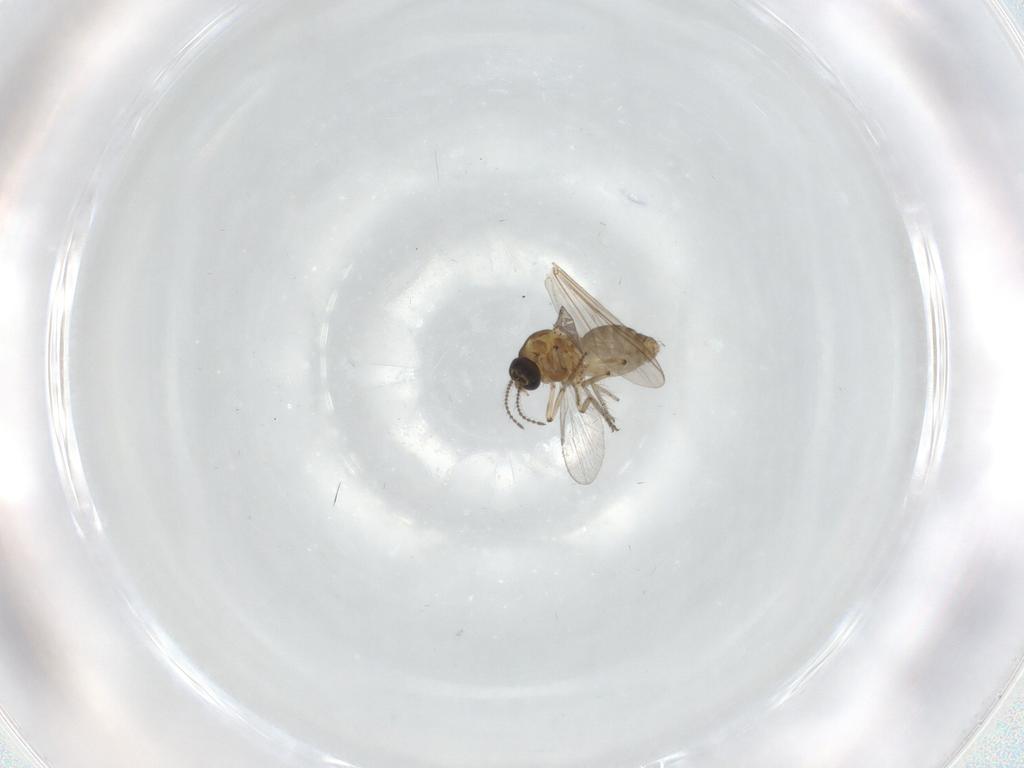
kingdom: Animalia
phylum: Arthropoda
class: Insecta
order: Diptera
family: Ceratopogonidae
